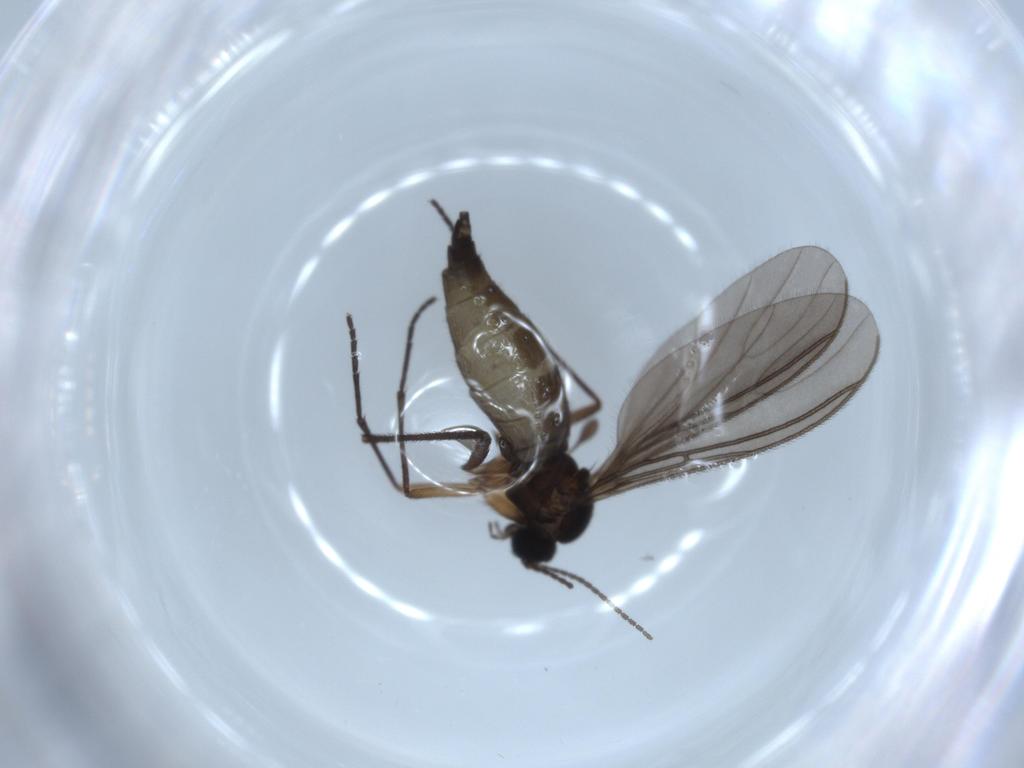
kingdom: Animalia
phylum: Arthropoda
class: Insecta
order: Diptera
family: Sciaridae
